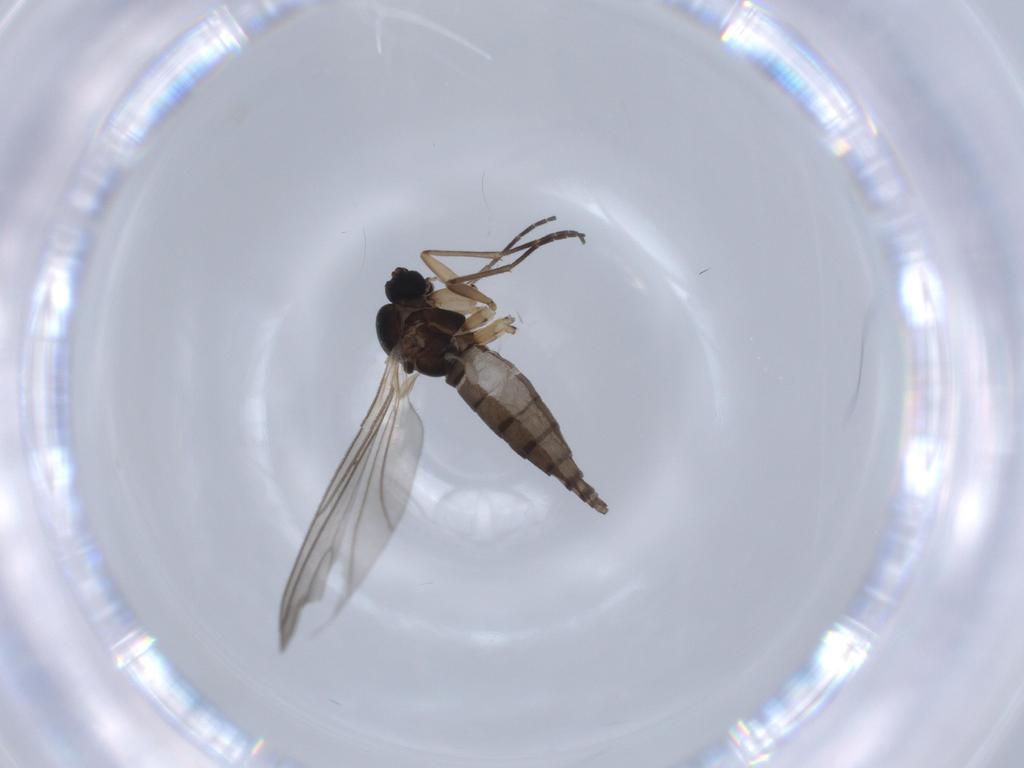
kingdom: Animalia
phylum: Arthropoda
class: Insecta
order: Diptera
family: Sciaridae
